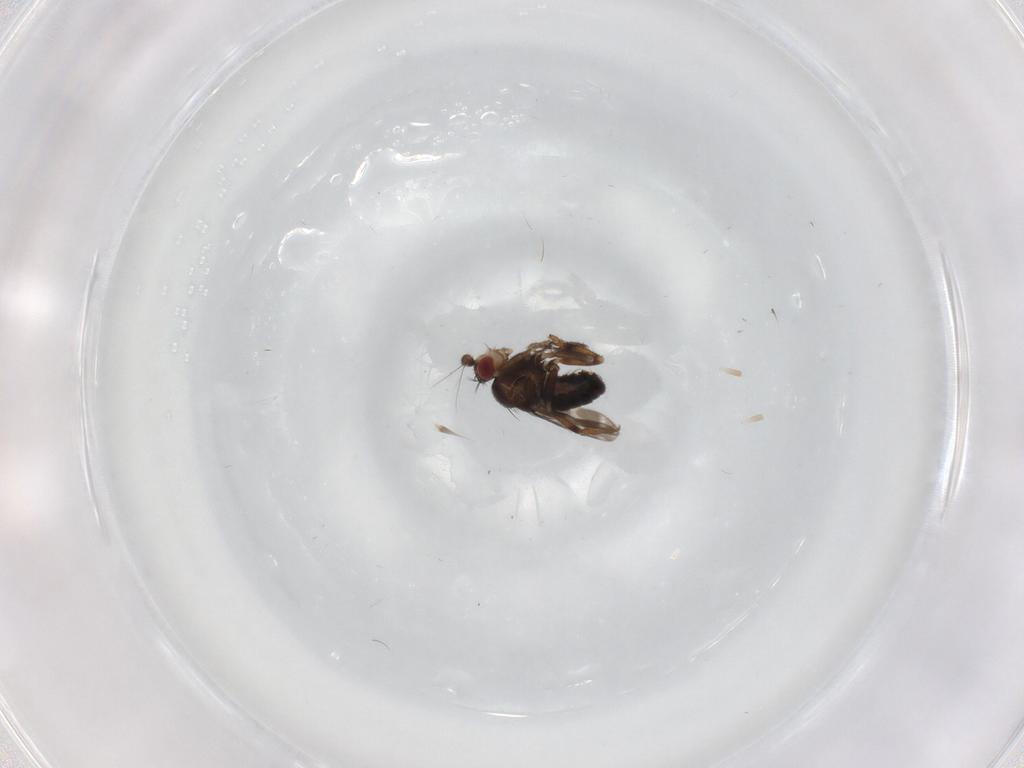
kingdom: Animalia
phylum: Arthropoda
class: Insecta
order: Diptera
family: Sphaeroceridae
